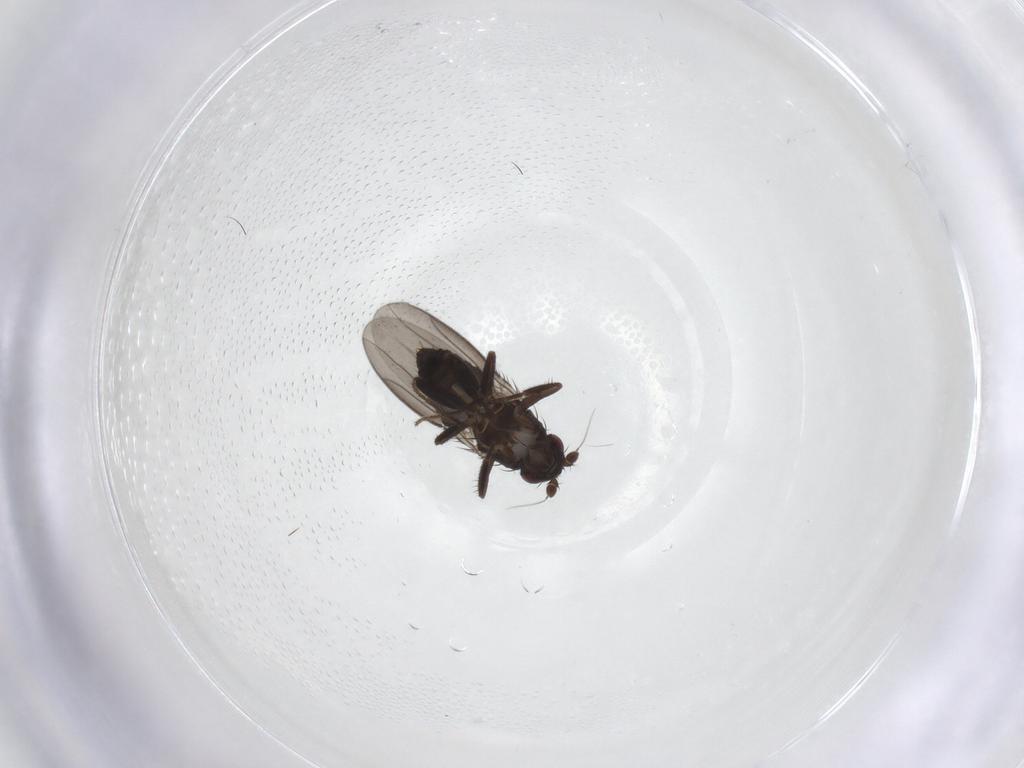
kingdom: Animalia
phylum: Arthropoda
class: Insecta
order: Diptera
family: Sphaeroceridae
